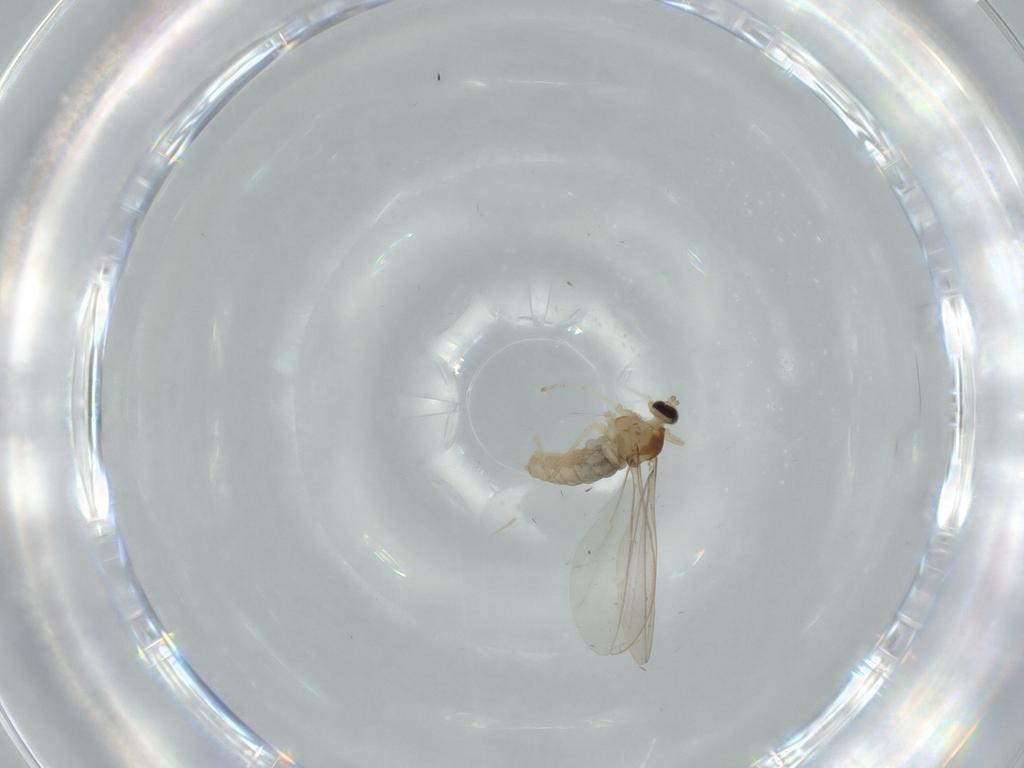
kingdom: Animalia
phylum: Arthropoda
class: Insecta
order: Diptera
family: Cecidomyiidae
